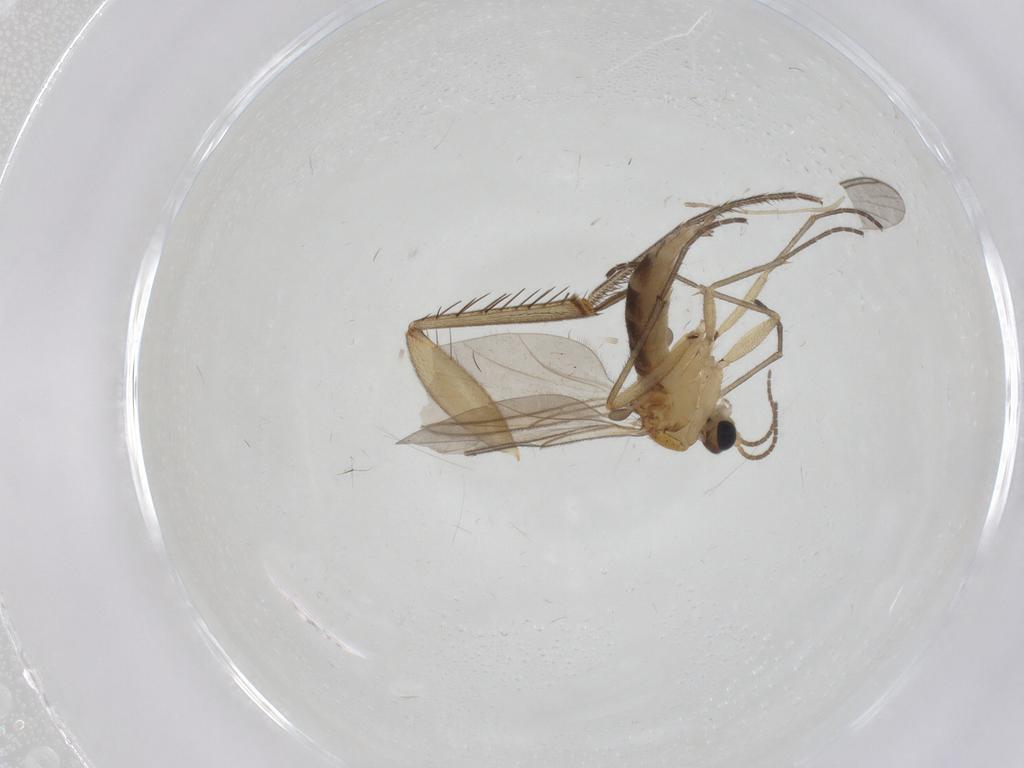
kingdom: Animalia
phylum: Arthropoda
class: Insecta
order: Diptera
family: Psychodidae
